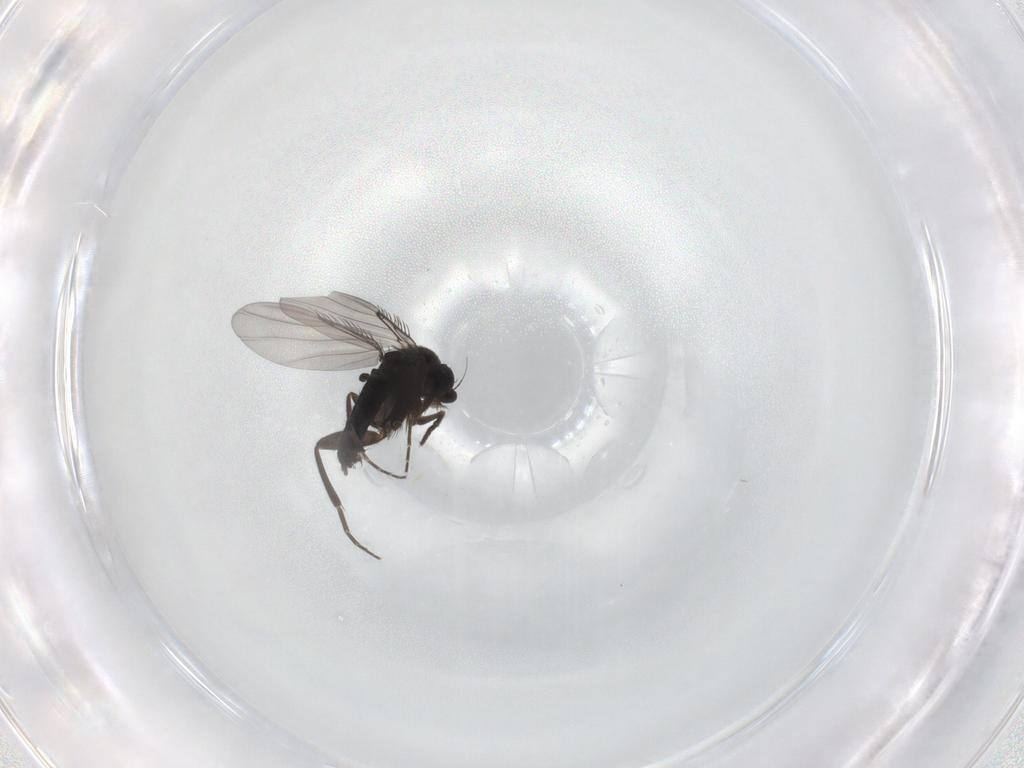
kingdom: Animalia
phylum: Arthropoda
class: Insecta
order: Diptera
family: Phoridae
